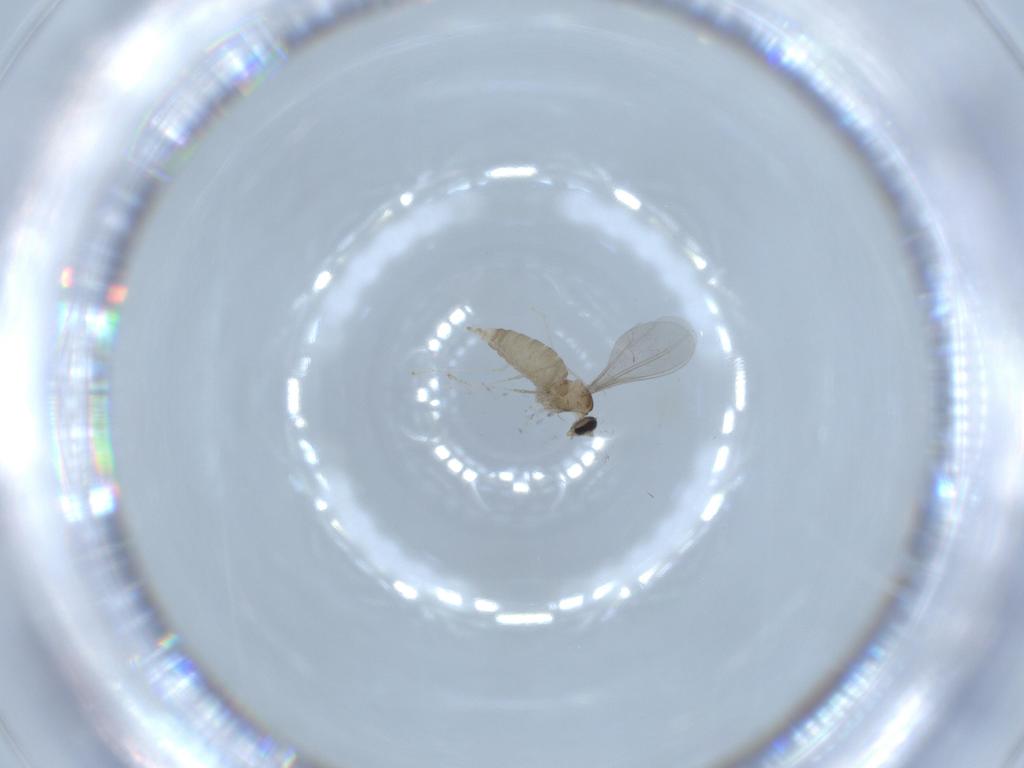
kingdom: Animalia
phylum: Arthropoda
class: Insecta
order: Diptera
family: Cecidomyiidae
